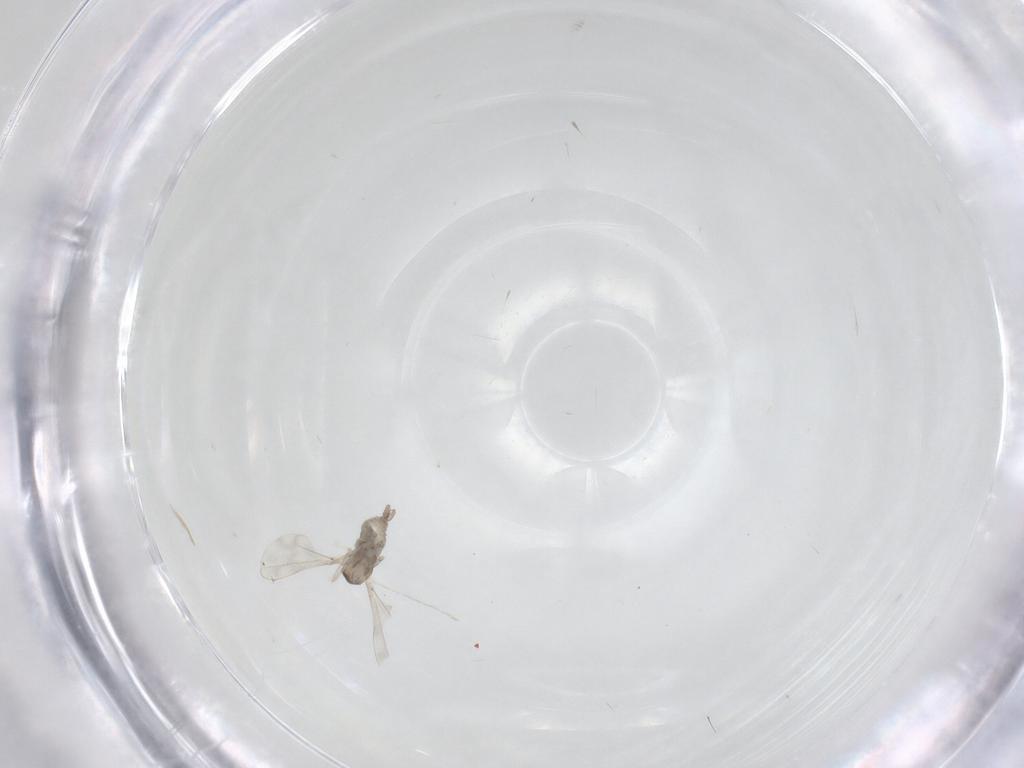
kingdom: Animalia
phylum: Arthropoda
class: Insecta
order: Diptera
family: Cecidomyiidae
